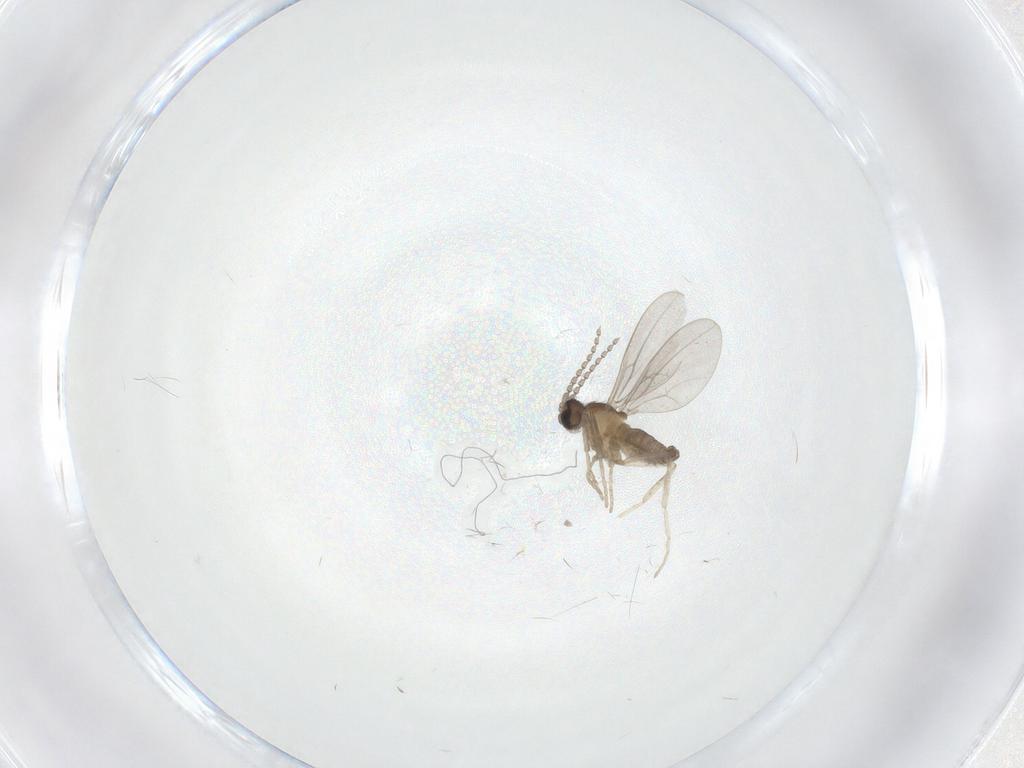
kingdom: Animalia
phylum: Arthropoda
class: Insecta
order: Diptera
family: Cecidomyiidae
